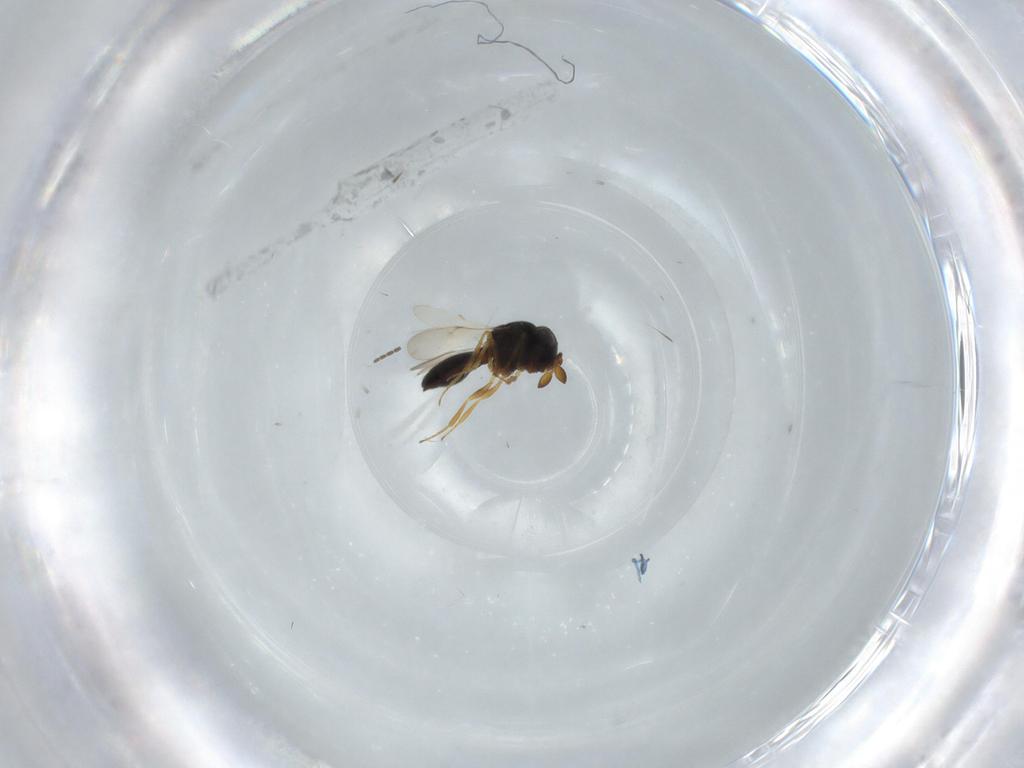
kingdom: Animalia
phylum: Arthropoda
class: Insecta
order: Hymenoptera
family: Scelionidae
